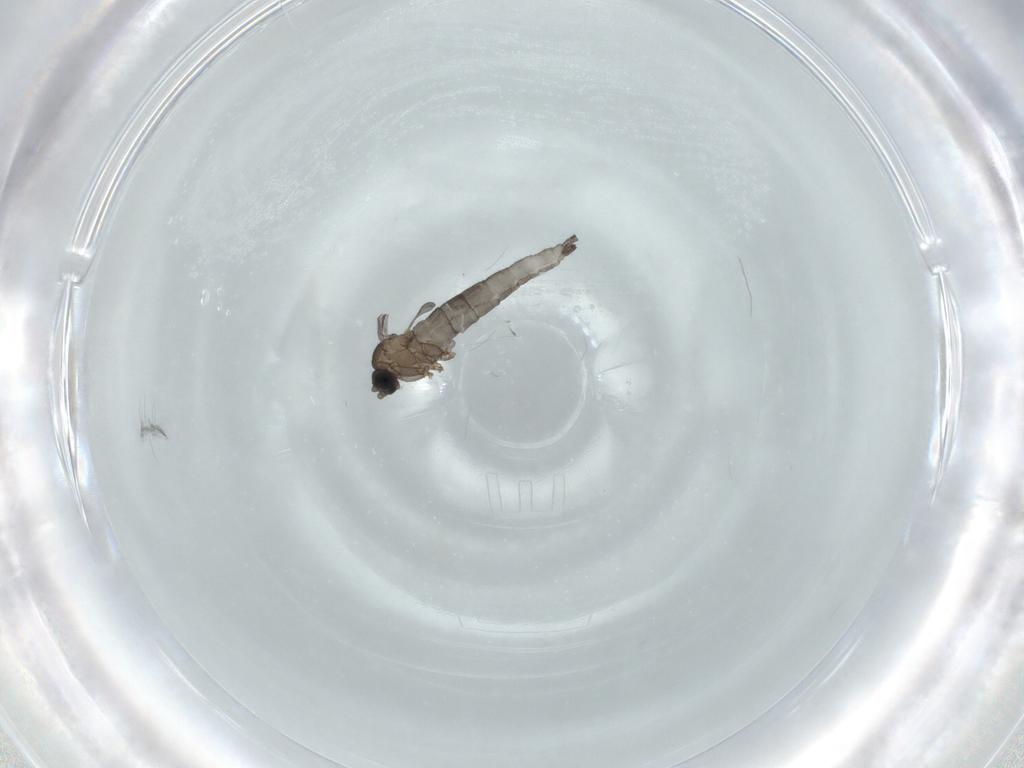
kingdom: Animalia
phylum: Arthropoda
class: Insecta
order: Diptera
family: Sciaridae
